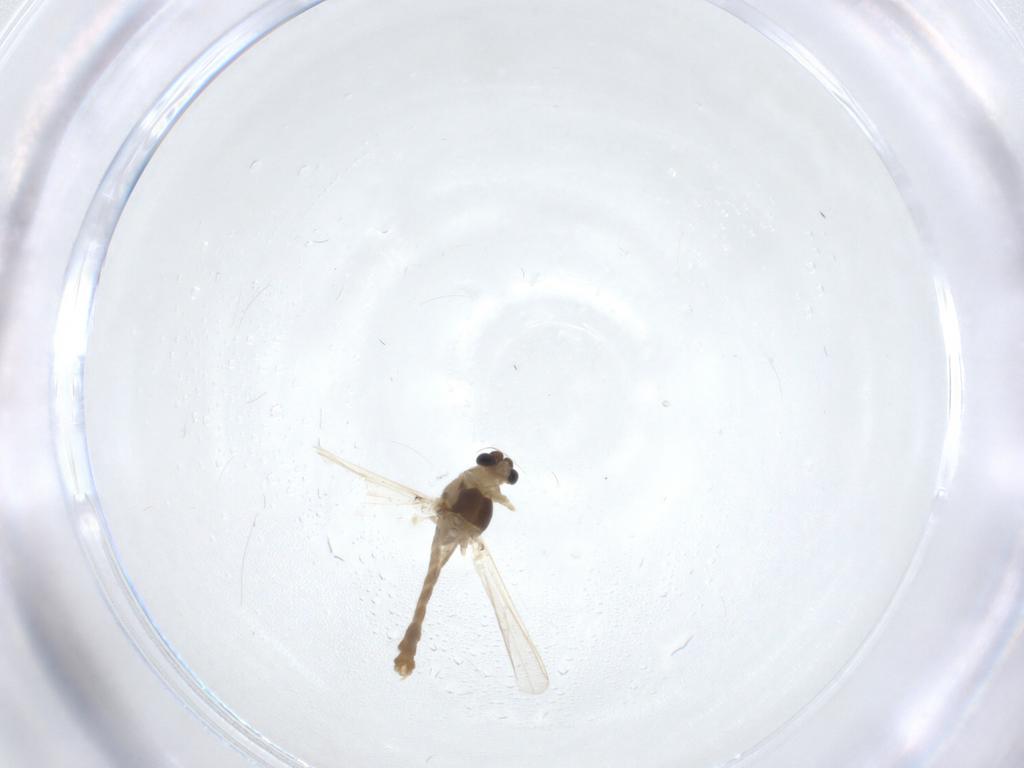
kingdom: Animalia
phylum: Arthropoda
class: Insecta
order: Diptera
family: Chironomidae
